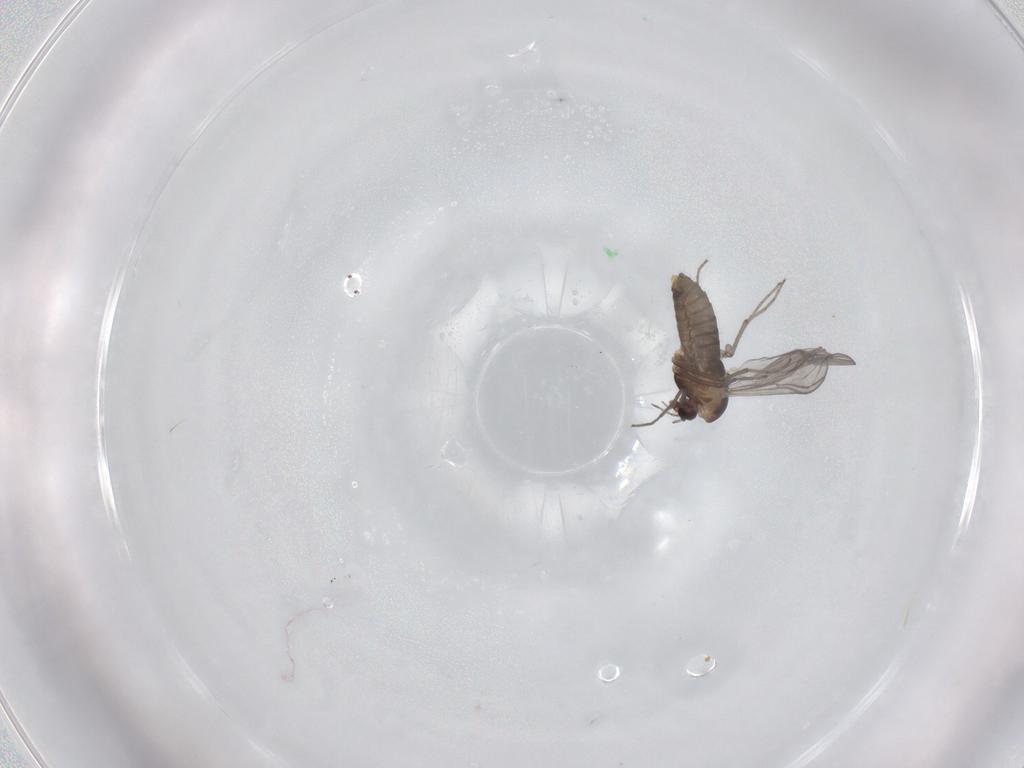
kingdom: Animalia
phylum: Arthropoda
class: Insecta
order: Diptera
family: Chironomidae
